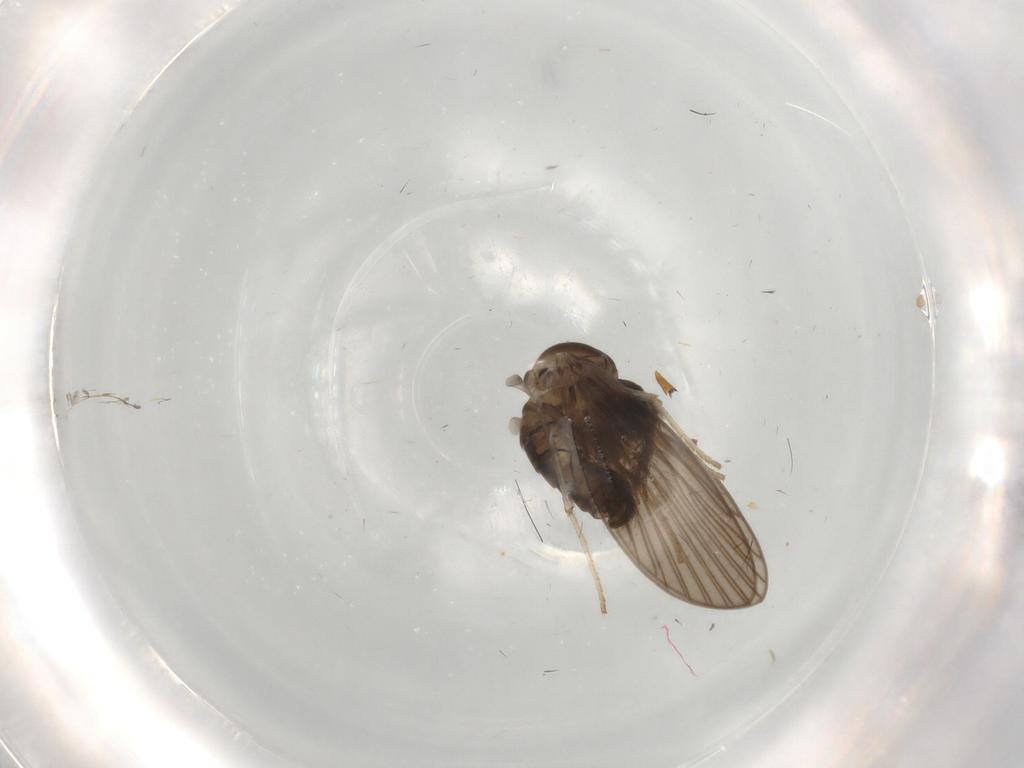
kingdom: Animalia
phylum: Arthropoda
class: Insecta
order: Diptera
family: Psychodidae
